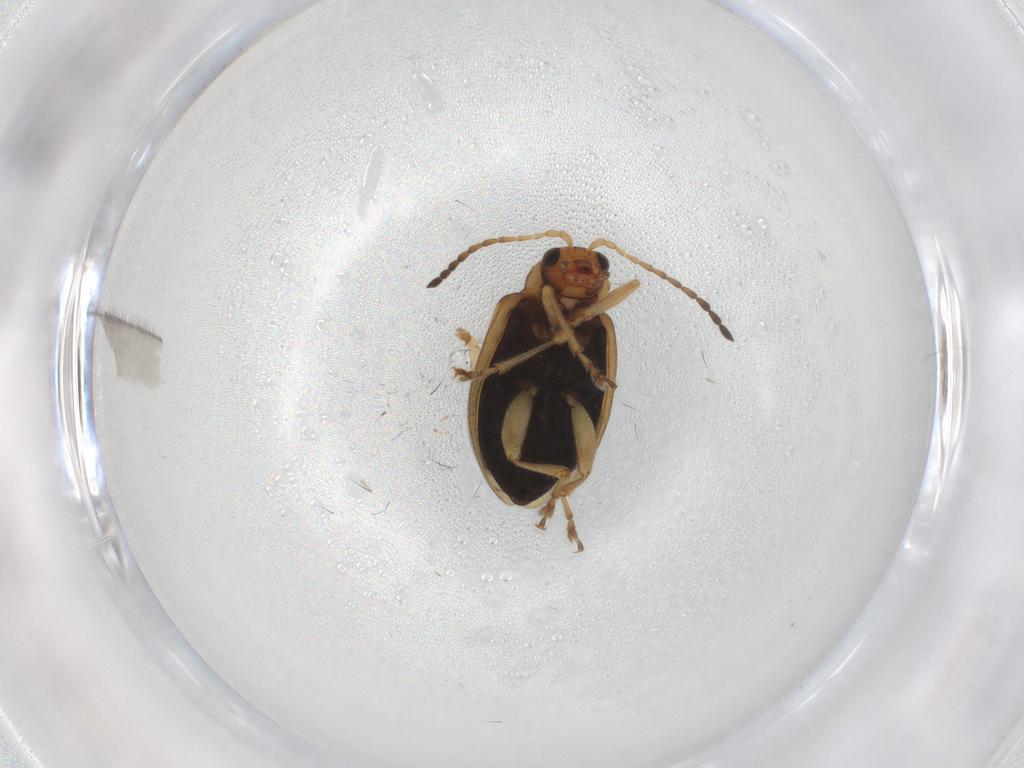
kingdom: Animalia
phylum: Arthropoda
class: Insecta
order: Coleoptera
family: Chrysomelidae
